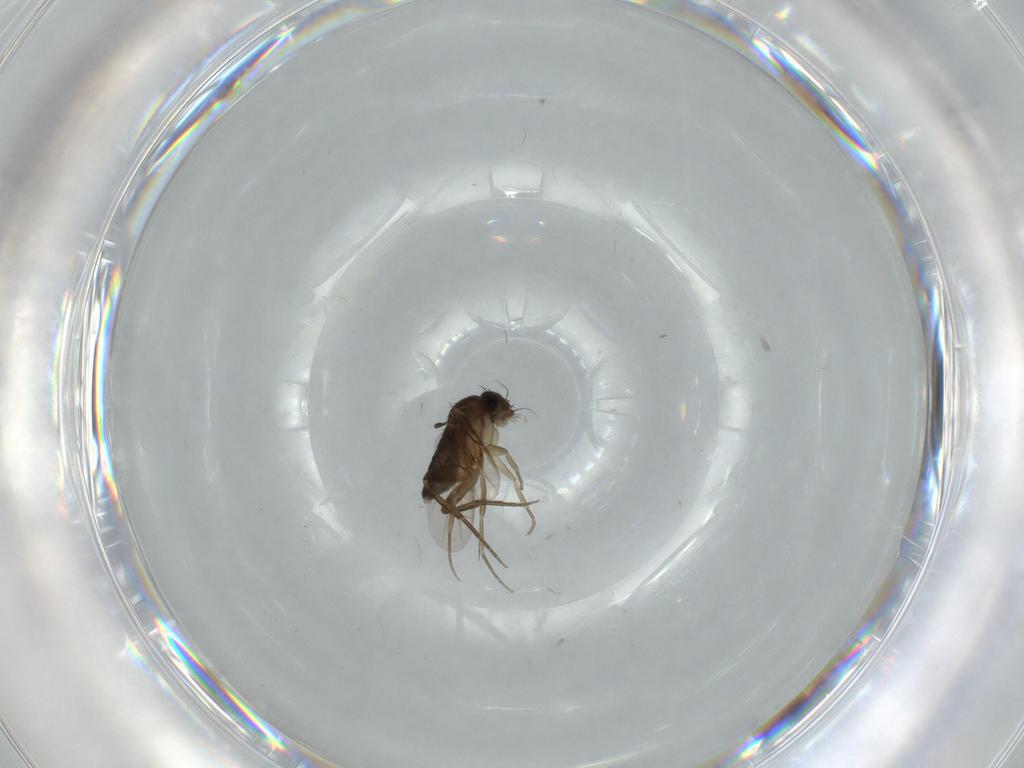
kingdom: Animalia
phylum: Arthropoda
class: Insecta
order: Diptera
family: Phoridae
